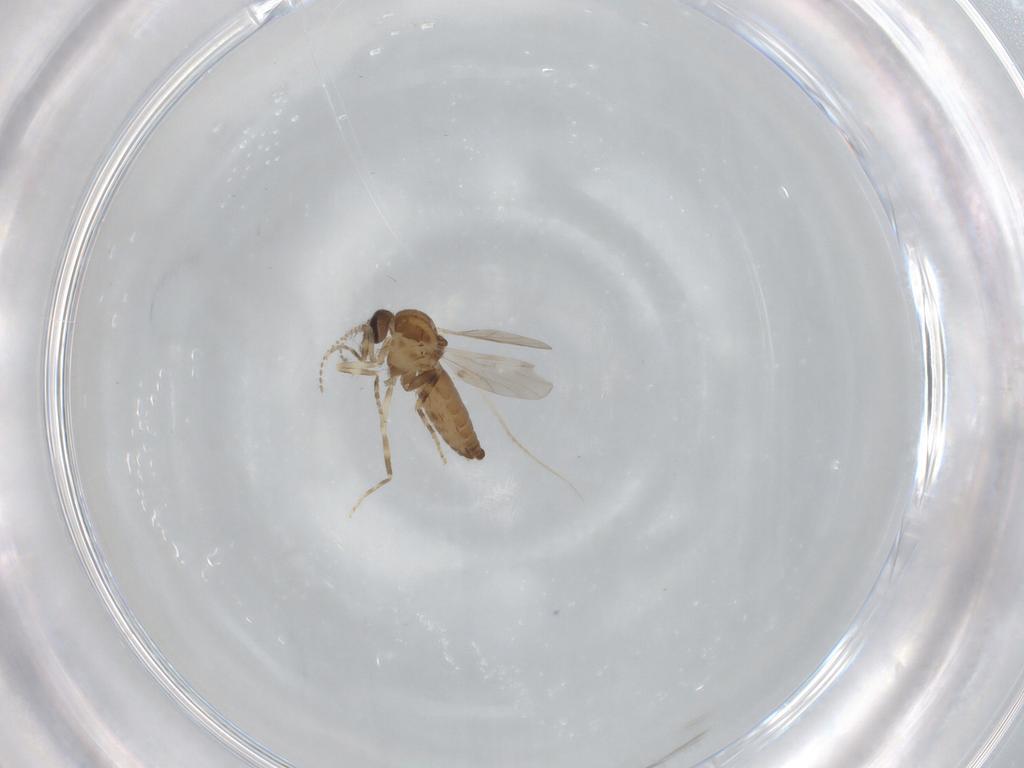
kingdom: Animalia
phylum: Arthropoda
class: Insecta
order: Diptera
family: Ceratopogonidae
